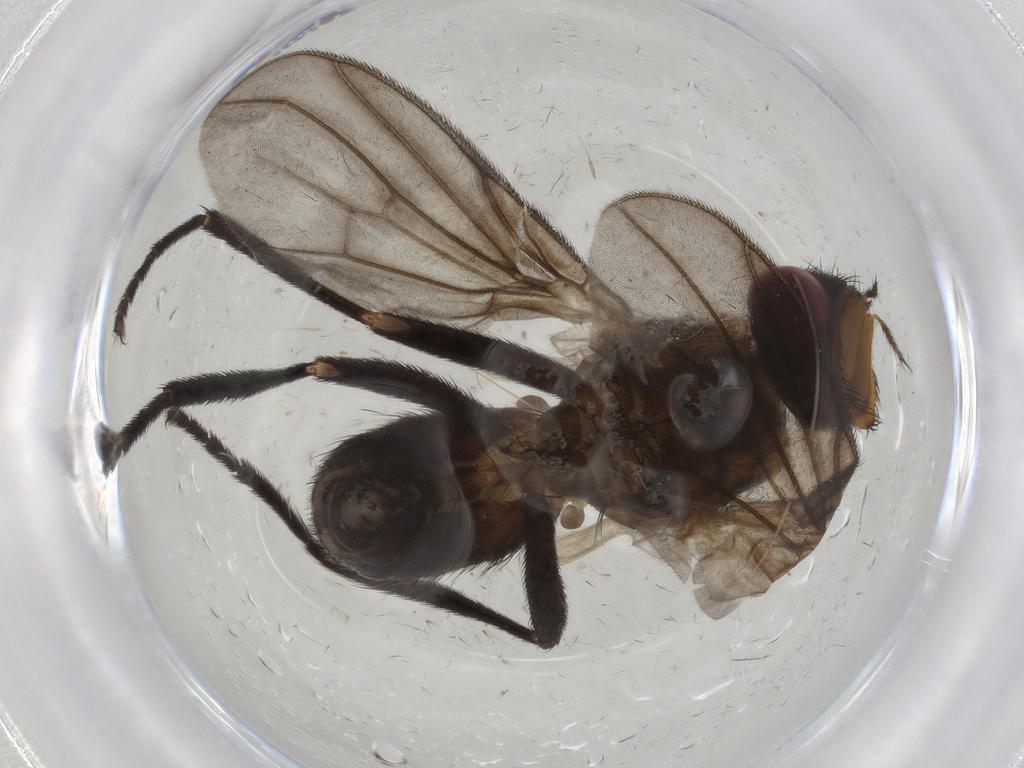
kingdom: Animalia
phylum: Arthropoda
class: Insecta
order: Diptera
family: Calliphoridae
